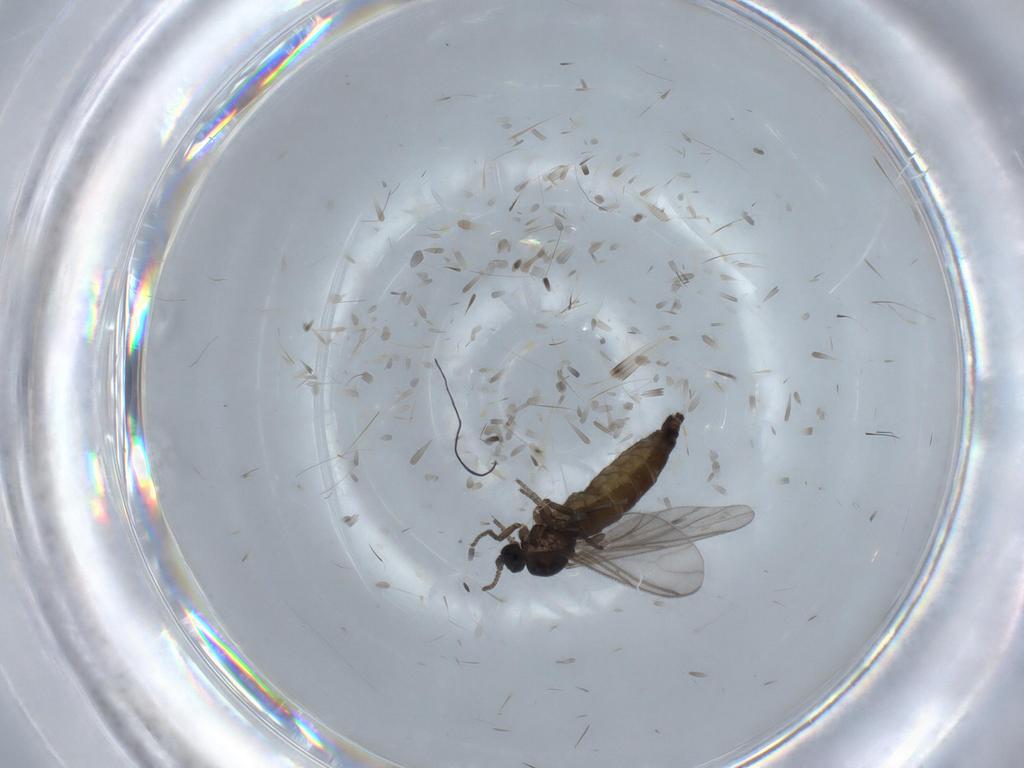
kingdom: Animalia
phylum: Arthropoda
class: Insecta
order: Diptera
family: Sciaridae
